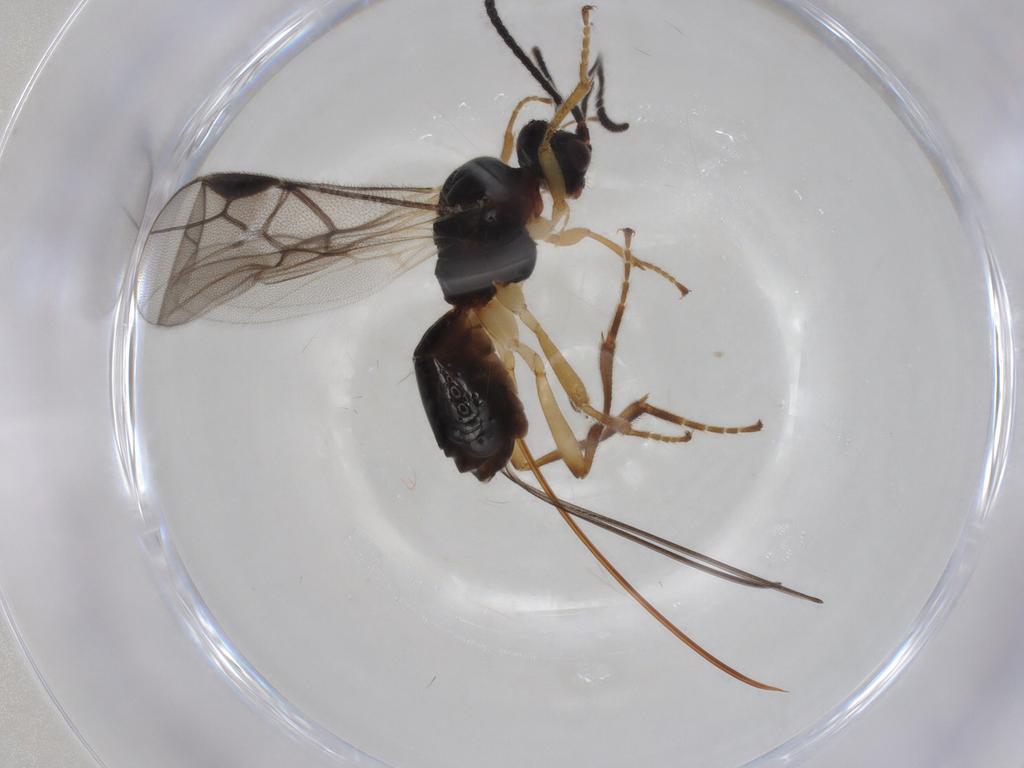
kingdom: Animalia
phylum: Arthropoda
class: Insecta
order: Hymenoptera
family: Braconidae
